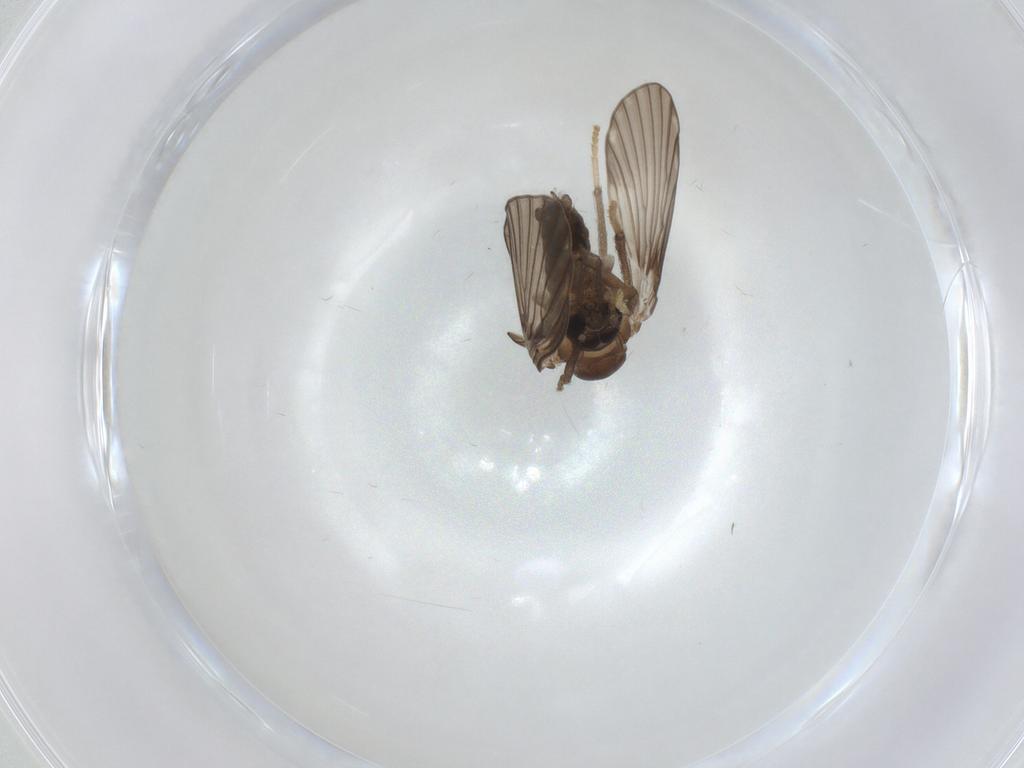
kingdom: Animalia
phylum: Arthropoda
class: Insecta
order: Diptera
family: Psychodidae
